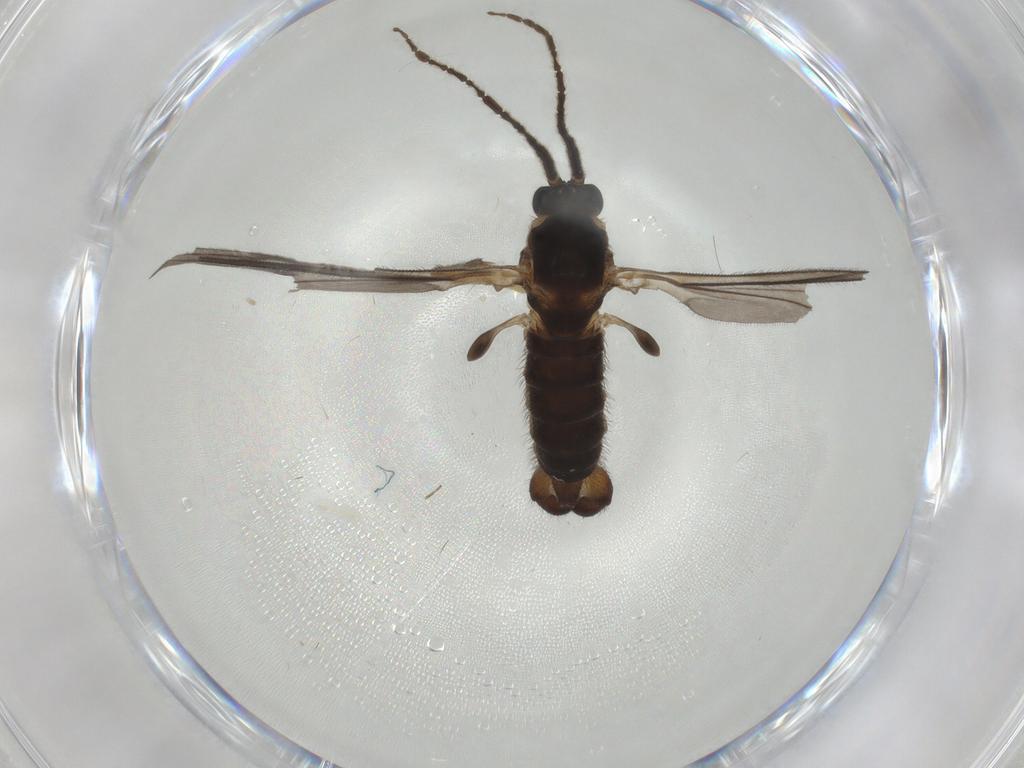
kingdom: Animalia
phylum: Arthropoda
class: Insecta
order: Diptera
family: Sciaridae
